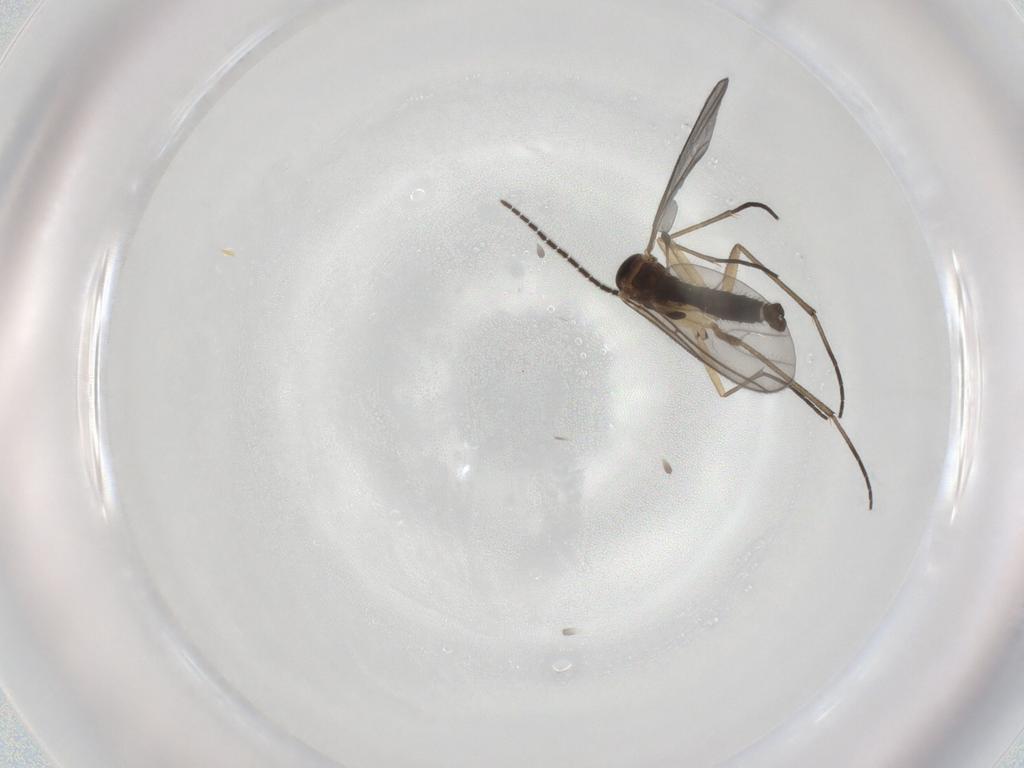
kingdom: Animalia
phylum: Arthropoda
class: Insecta
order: Diptera
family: Sciaridae
